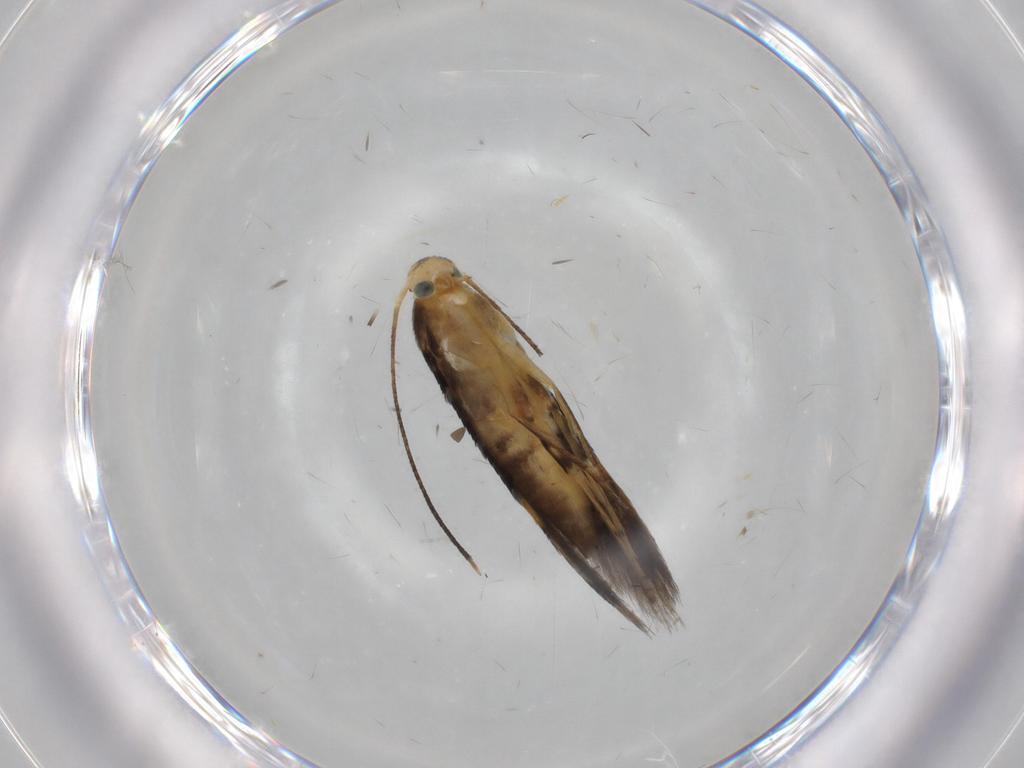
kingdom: Animalia
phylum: Arthropoda
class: Insecta
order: Lepidoptera
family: Heliodinidae
